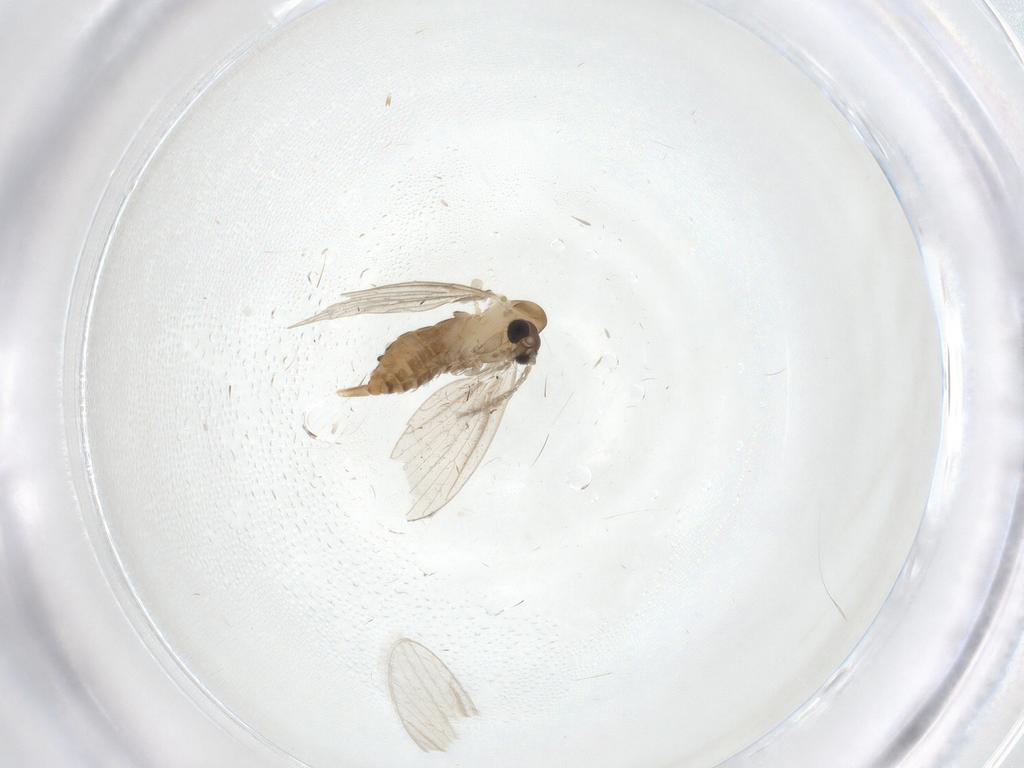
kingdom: Animalia
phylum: Arthropoda
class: Insecta
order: Diptera
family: Psychodidae
